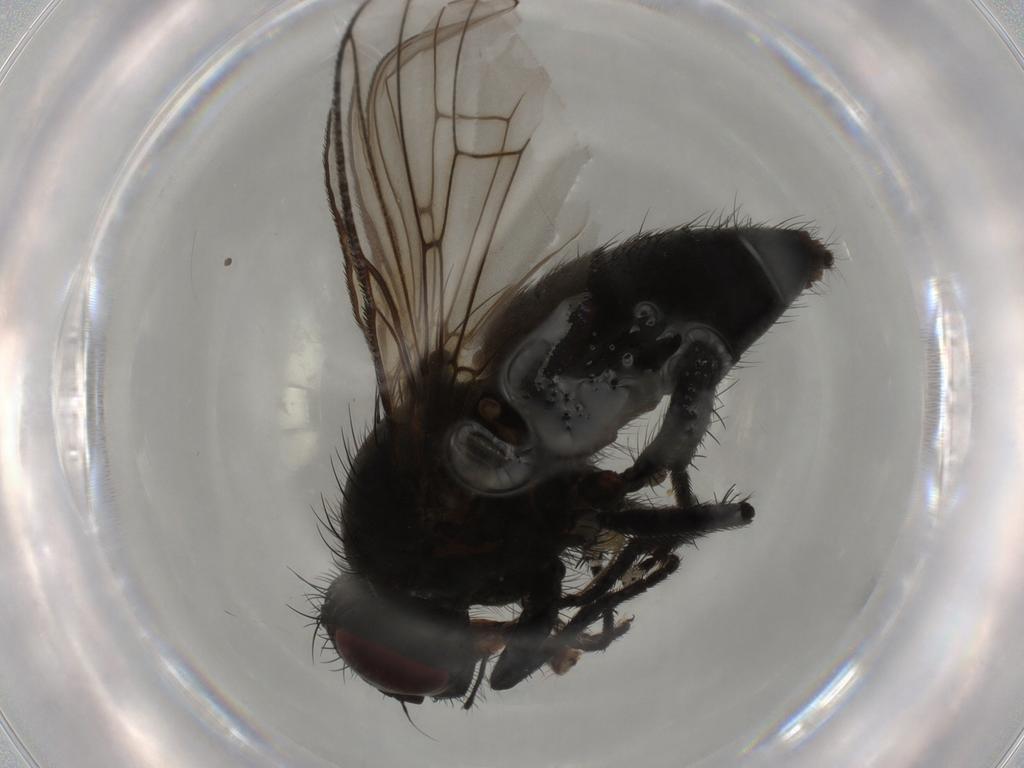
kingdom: Animalia
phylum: Arthropoda
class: Insecta
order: Diptera
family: Muscidae
